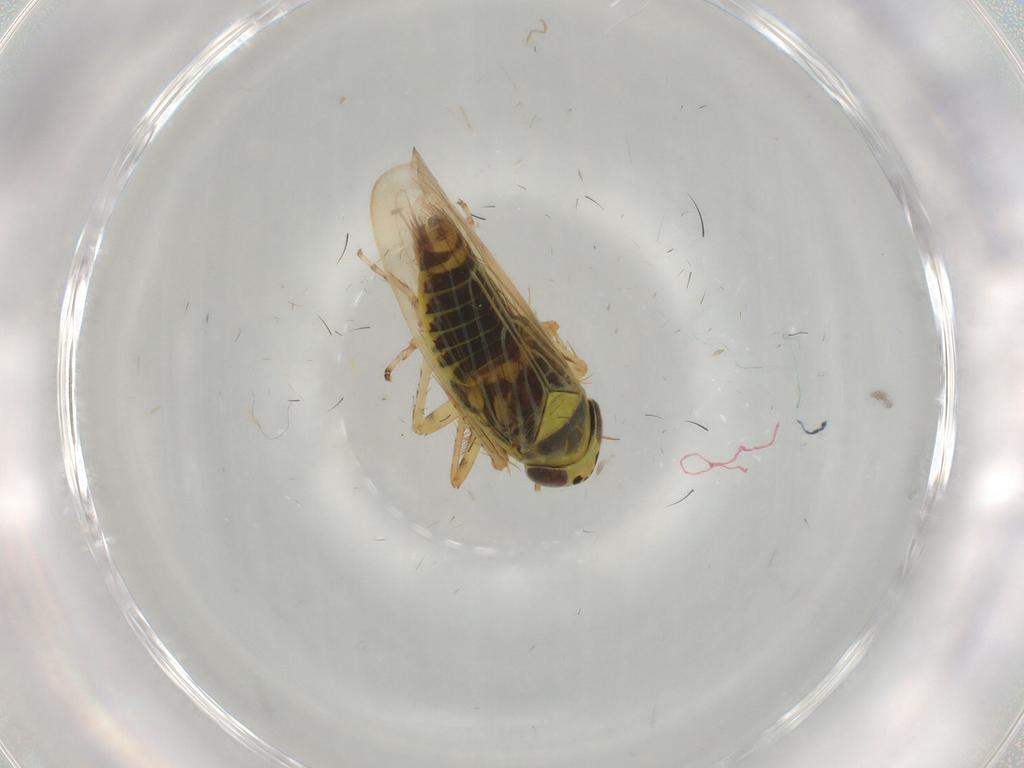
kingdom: Animalia
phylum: Arthropoda
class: Insecta
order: Hemiptera
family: Cicadellidae
